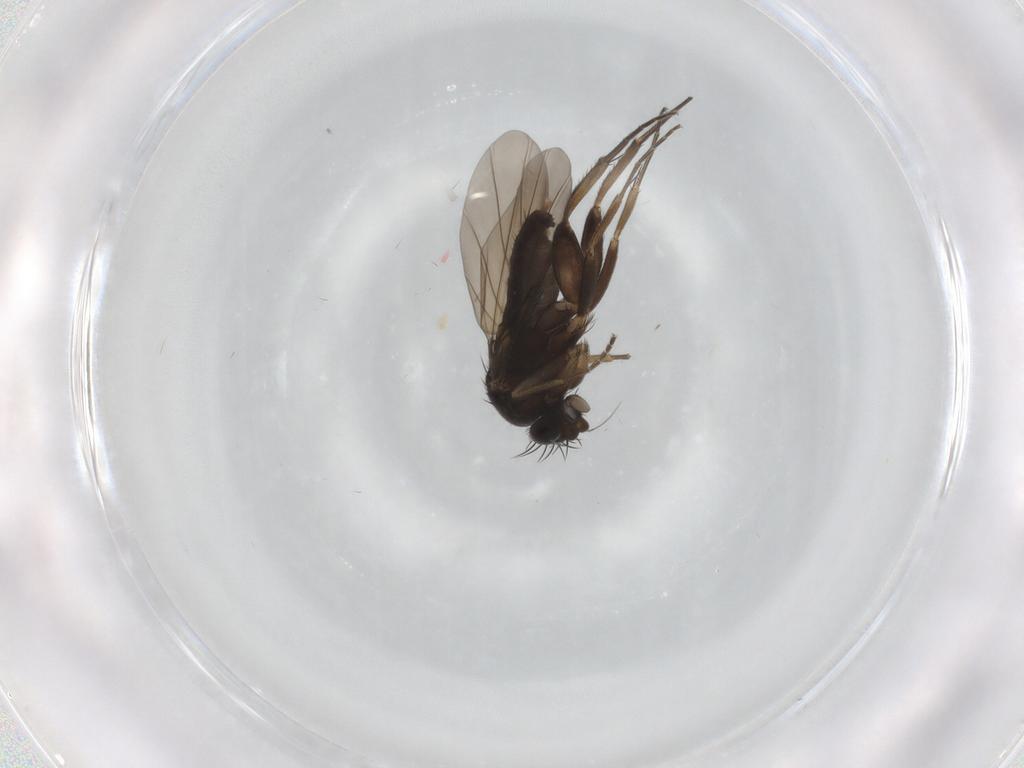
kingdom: Animalia
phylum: Arthropoda
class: Insecta
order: Diptera
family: Phoridae
